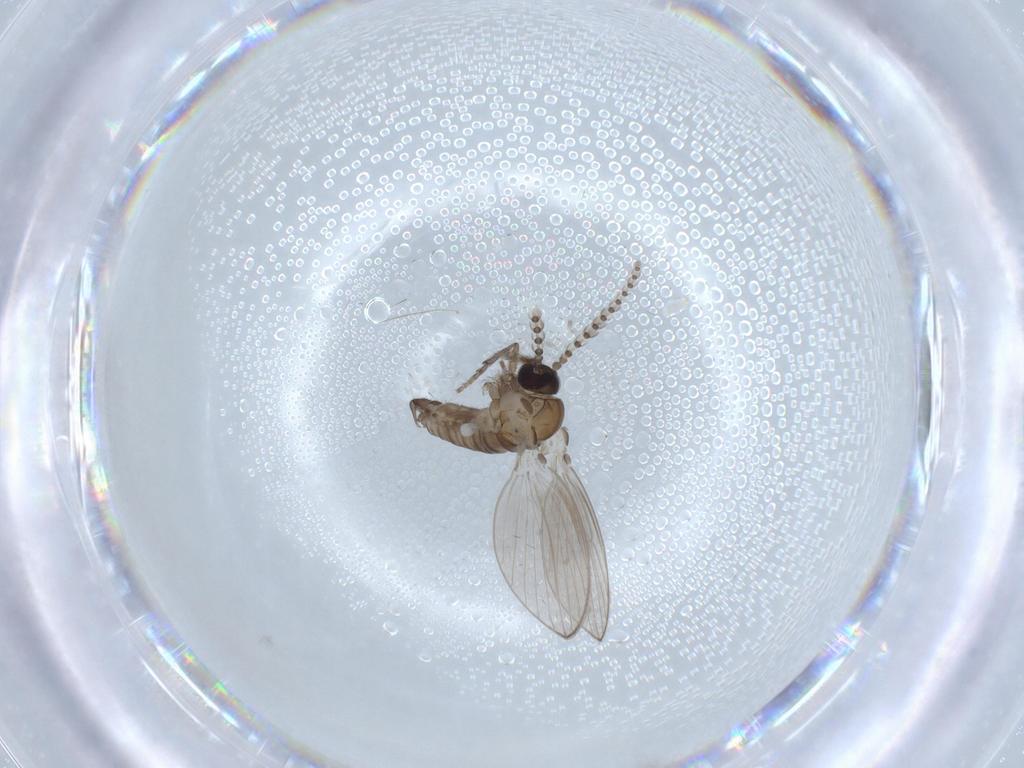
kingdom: Animalia
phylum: Arthropoda
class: Insecta
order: Diptera
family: Psychodidae
